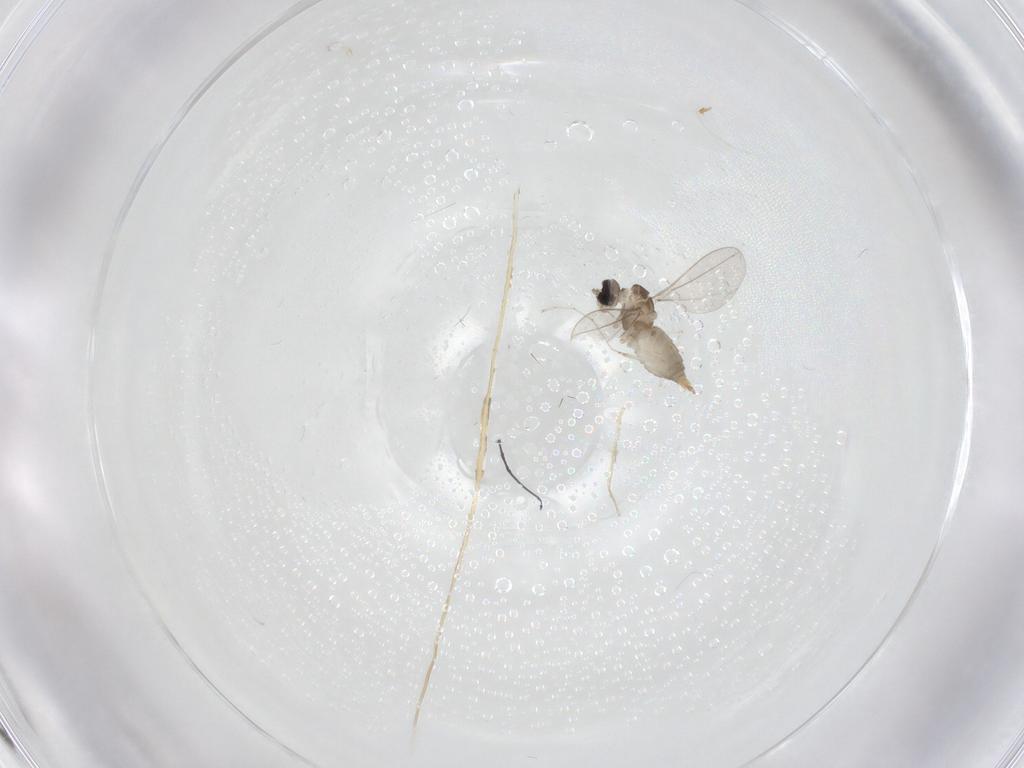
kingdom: Animalia
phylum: Arthropoda
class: Insecta
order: Diptera
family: Cecidomyiidae
